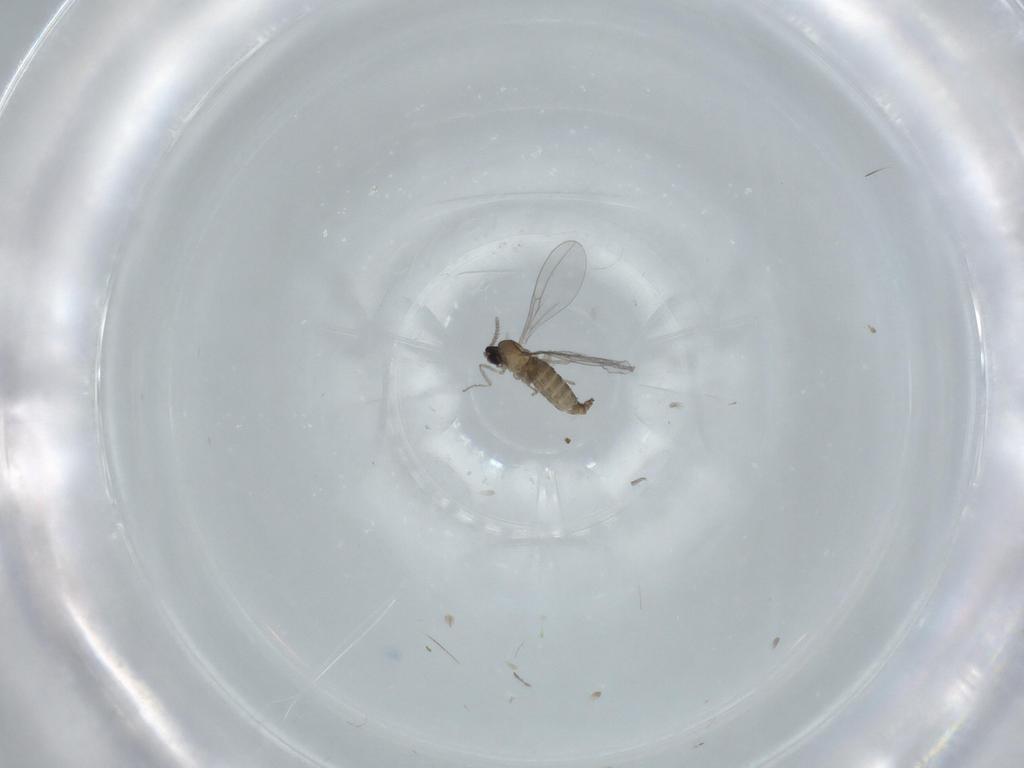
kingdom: Animalia
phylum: Arthropoda
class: Insecta
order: Diptera
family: Cecidomyiidae
